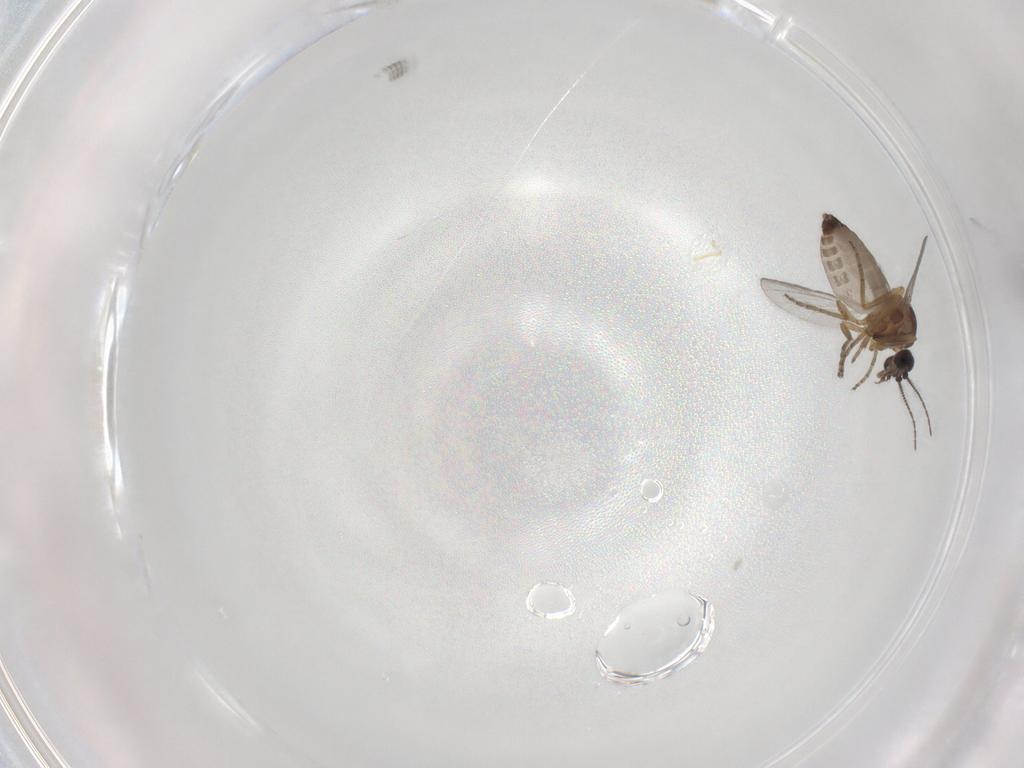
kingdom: Animalia
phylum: Arthropoda
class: Insecta
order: Diptera
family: Ceratopogonidae
